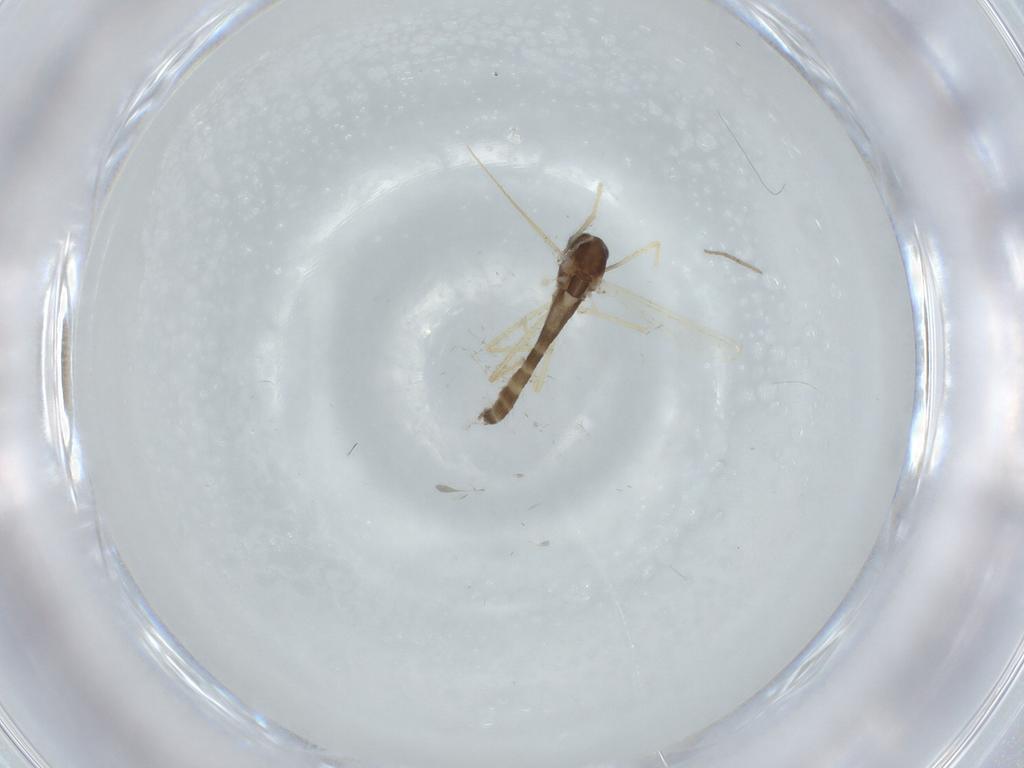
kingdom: Animalia
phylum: Arthropoda
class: Insecta
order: Diptera
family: Chironomidae
